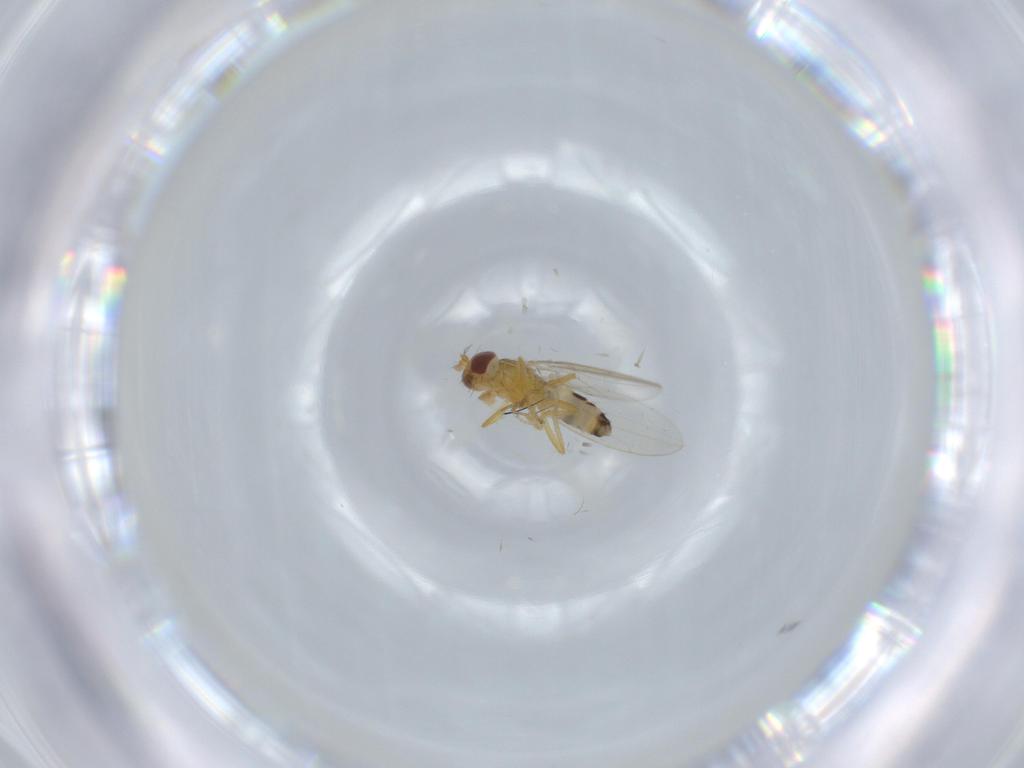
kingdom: Animalia
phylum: Arthropoda
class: Insecta
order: Diptera
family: Periscelididae
